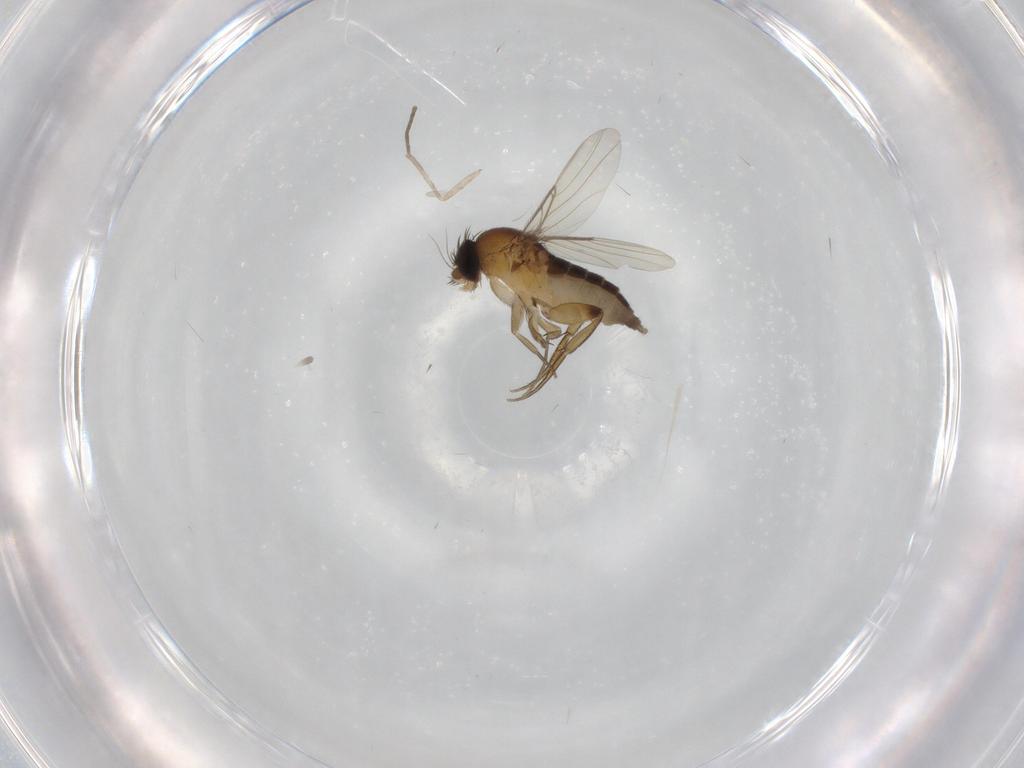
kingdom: Animalia
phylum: Arthropoda
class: Insecta
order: Diptera
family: Phoridae
